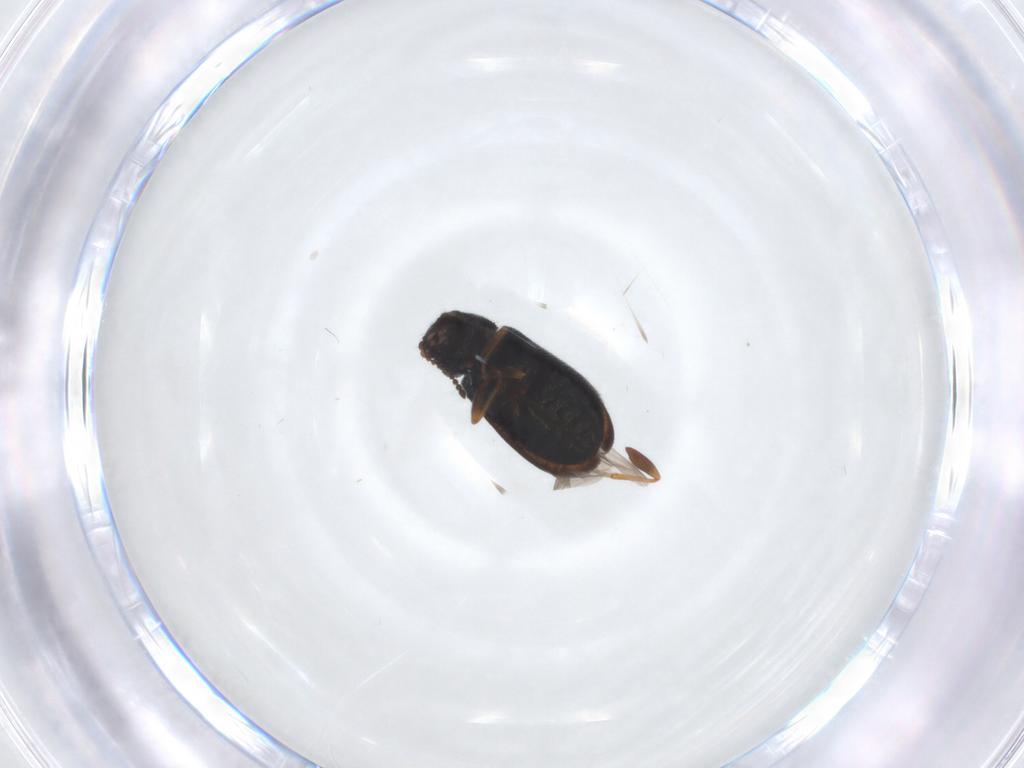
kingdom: Animalia
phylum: Arthropoda
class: Insecta
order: Coleoptera
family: Melyridae
